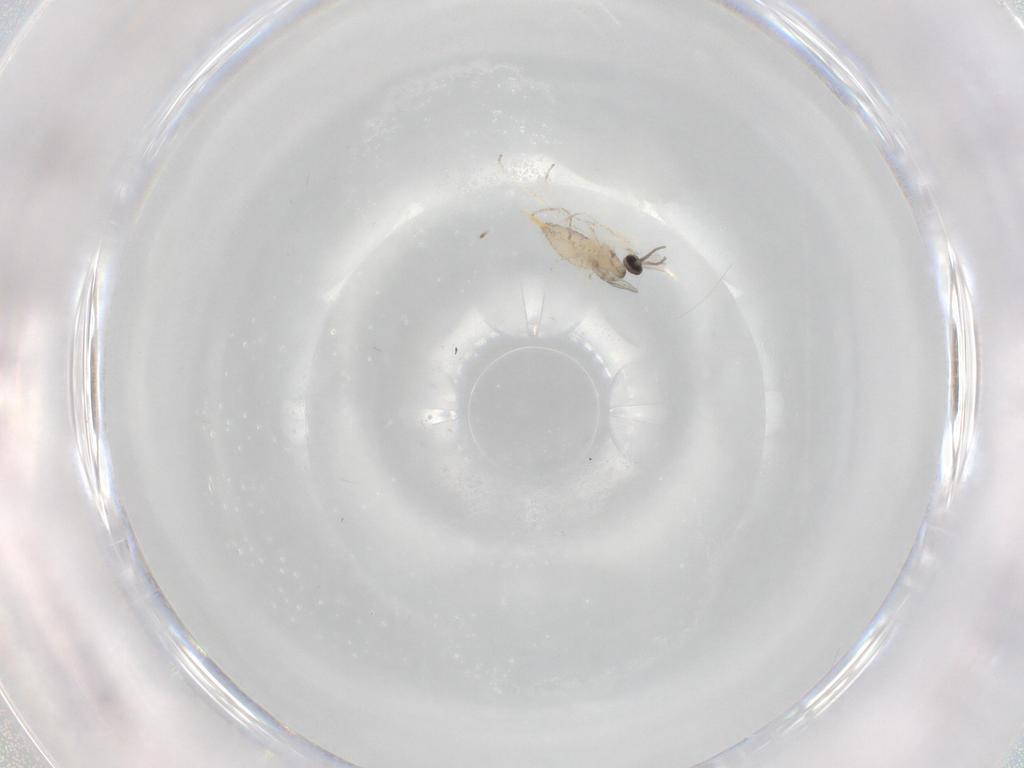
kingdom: Animalia
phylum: Arthropoda
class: Insecta
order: Diptera
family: Cecidomyiidae
